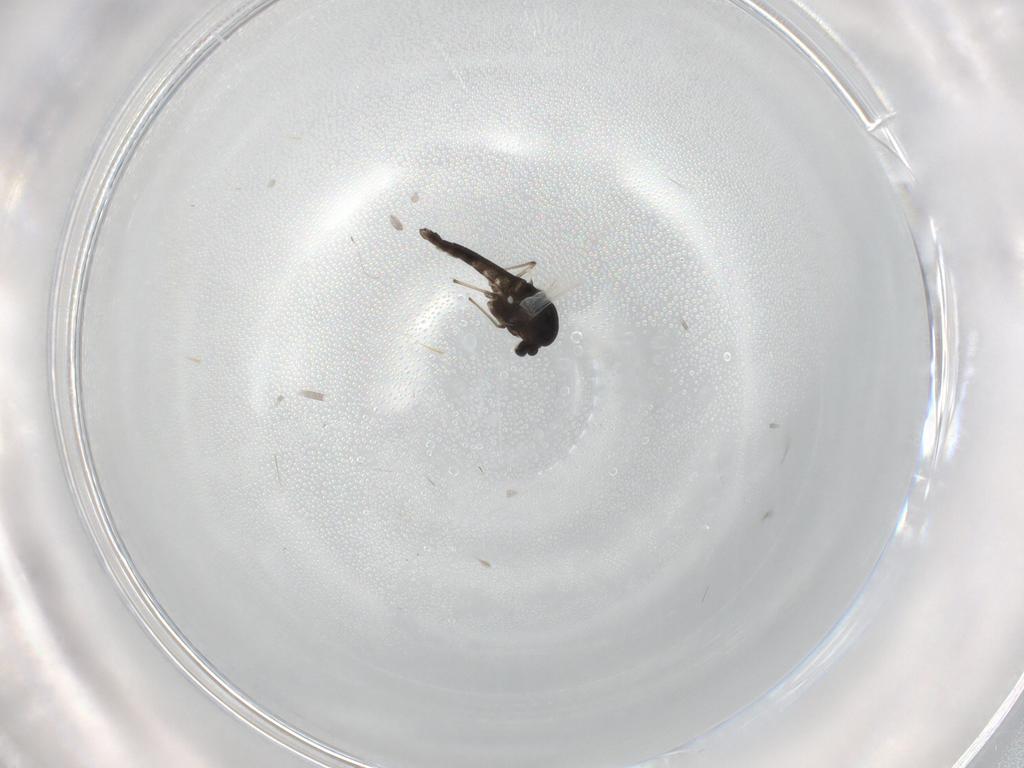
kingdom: Animalia
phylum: Arthropoda
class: Insecta
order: Diptera
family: Chironomidae
